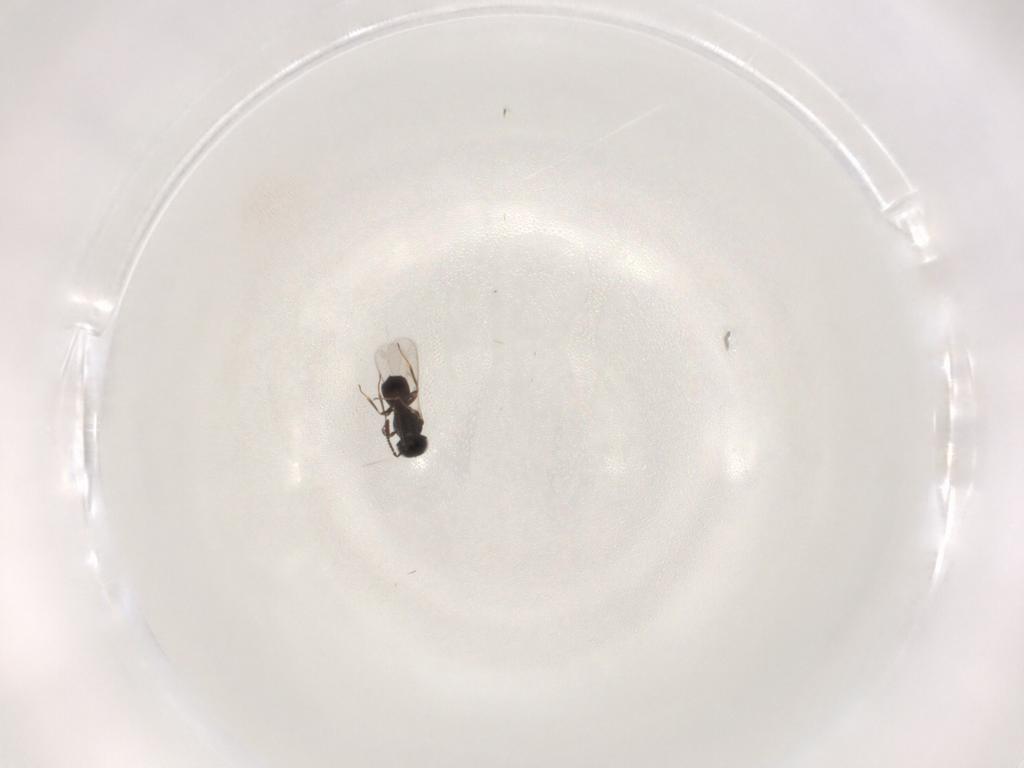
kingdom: Animalia
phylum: Arthropoda
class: Insecta
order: Hymenoptera
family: Scelionidae
